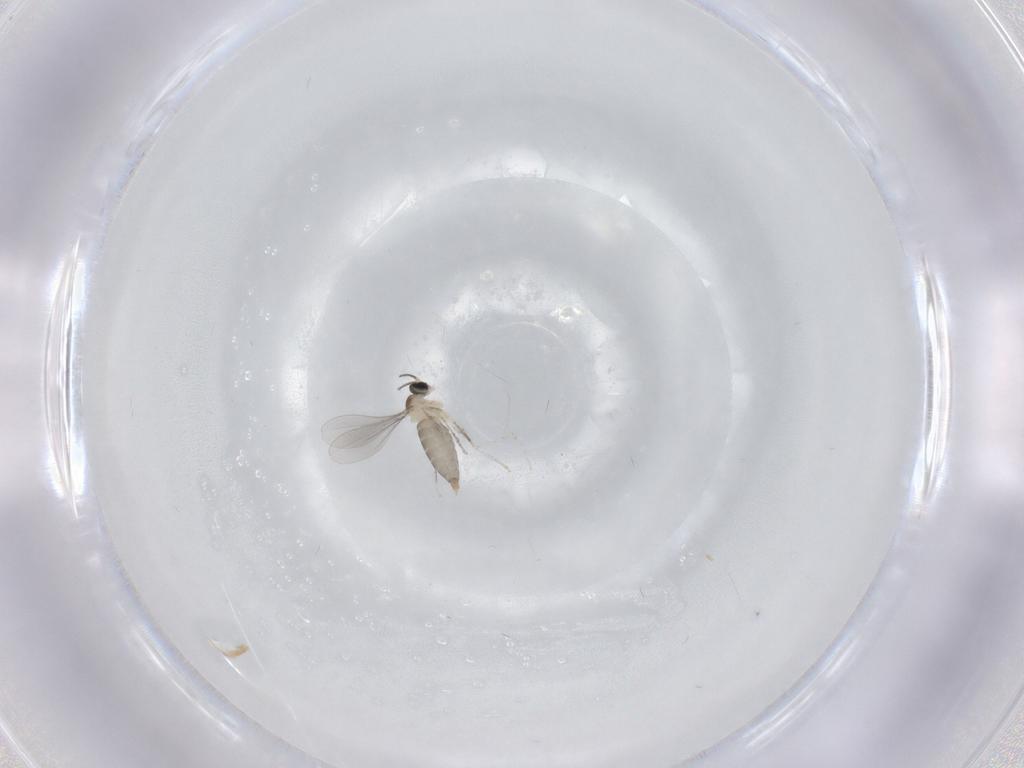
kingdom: Animalia
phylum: Arthropoda
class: Insecta
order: Diptera
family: Cecidomyiidae
